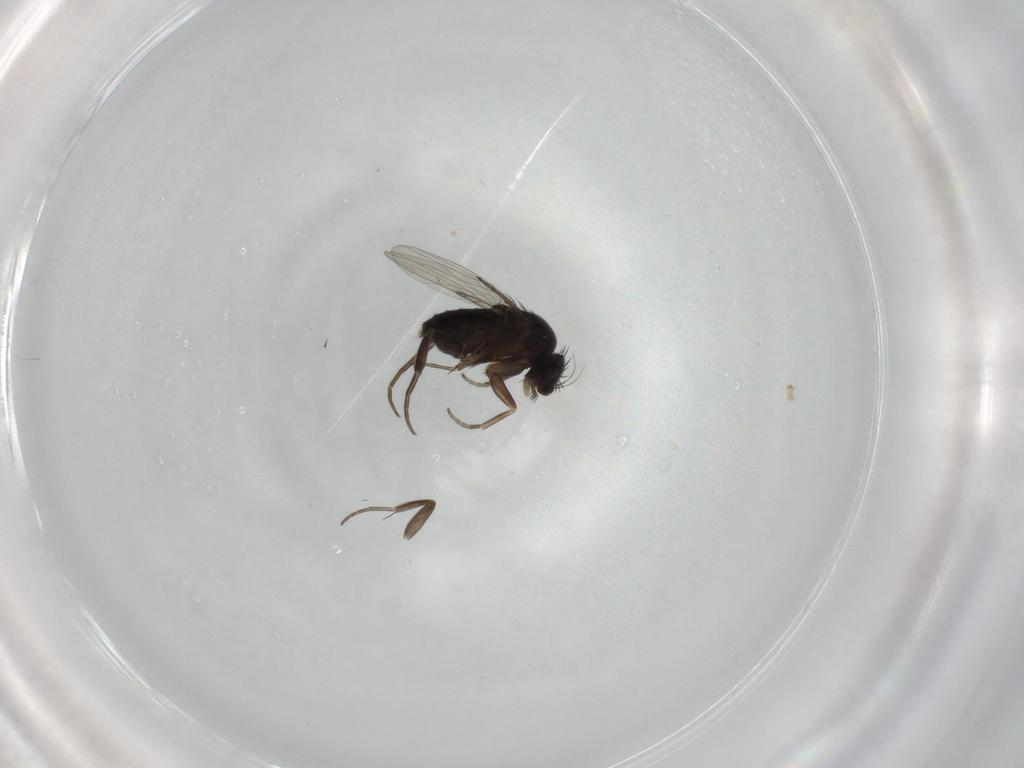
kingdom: Animalia
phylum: Arthropoda
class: Insecta
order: Diptera
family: Phoridae
